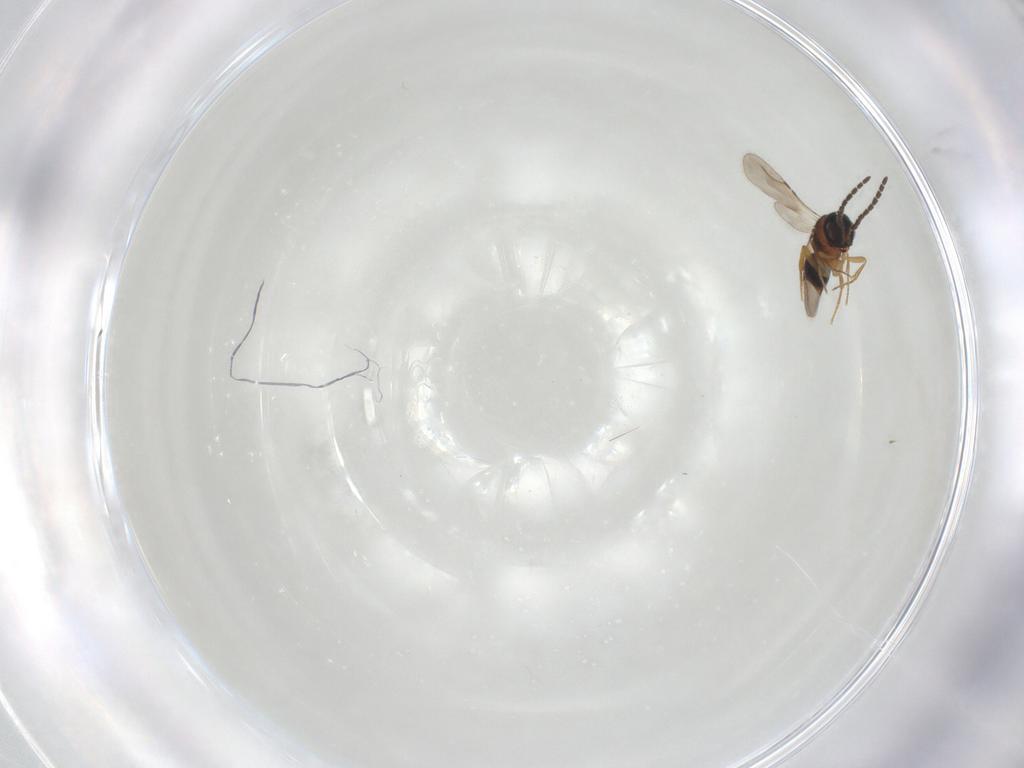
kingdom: Animalia
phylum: Arthropoda
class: Insecta
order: Hymenoptera
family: Ceraphronidae
